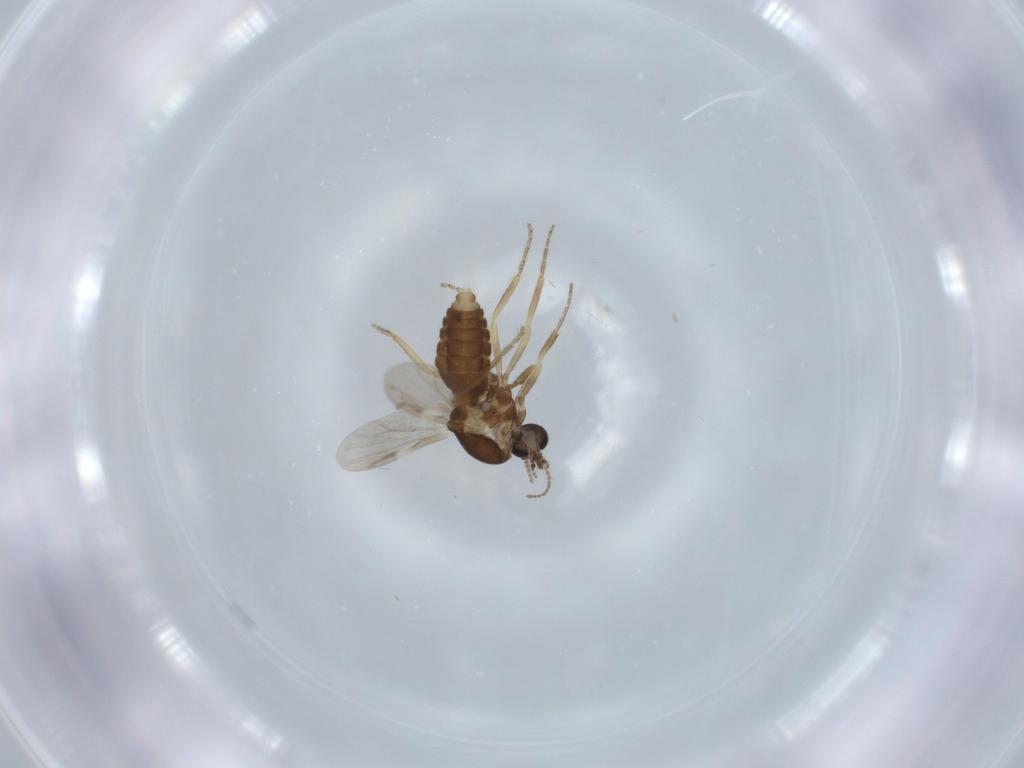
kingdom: Animalia
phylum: Arthropoda
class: Insecta
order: Diptera
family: Ceratopogonidae
